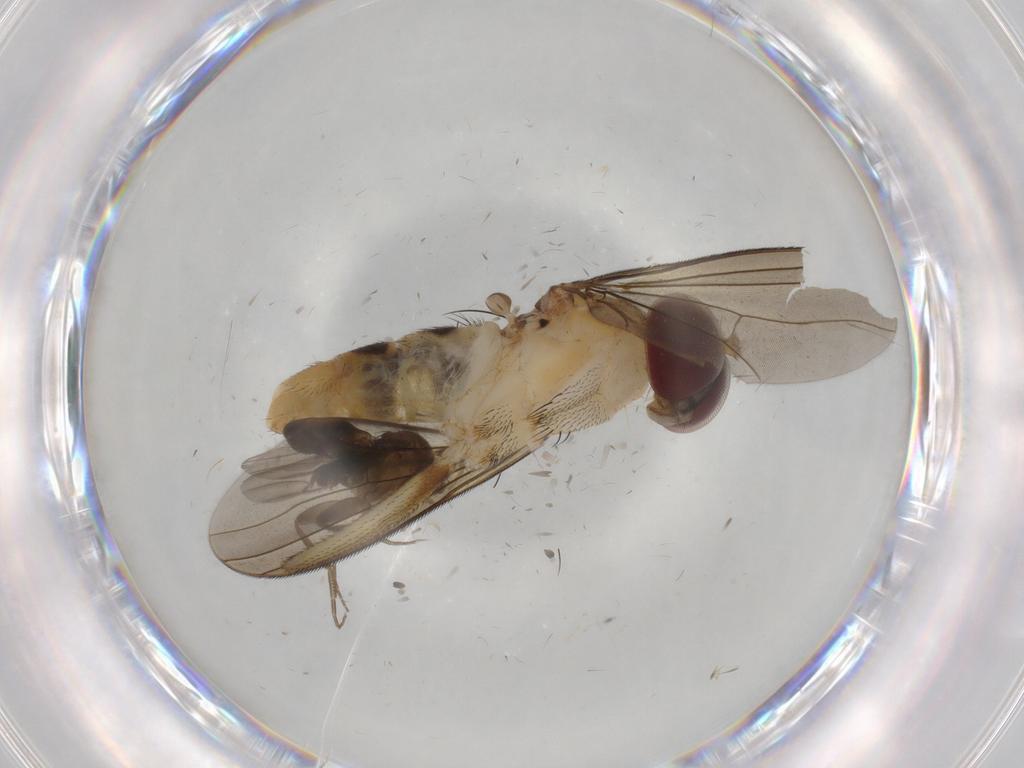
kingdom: Animalia
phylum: Arthropoda
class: Insecta
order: Diptera
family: Dolichopodidae
